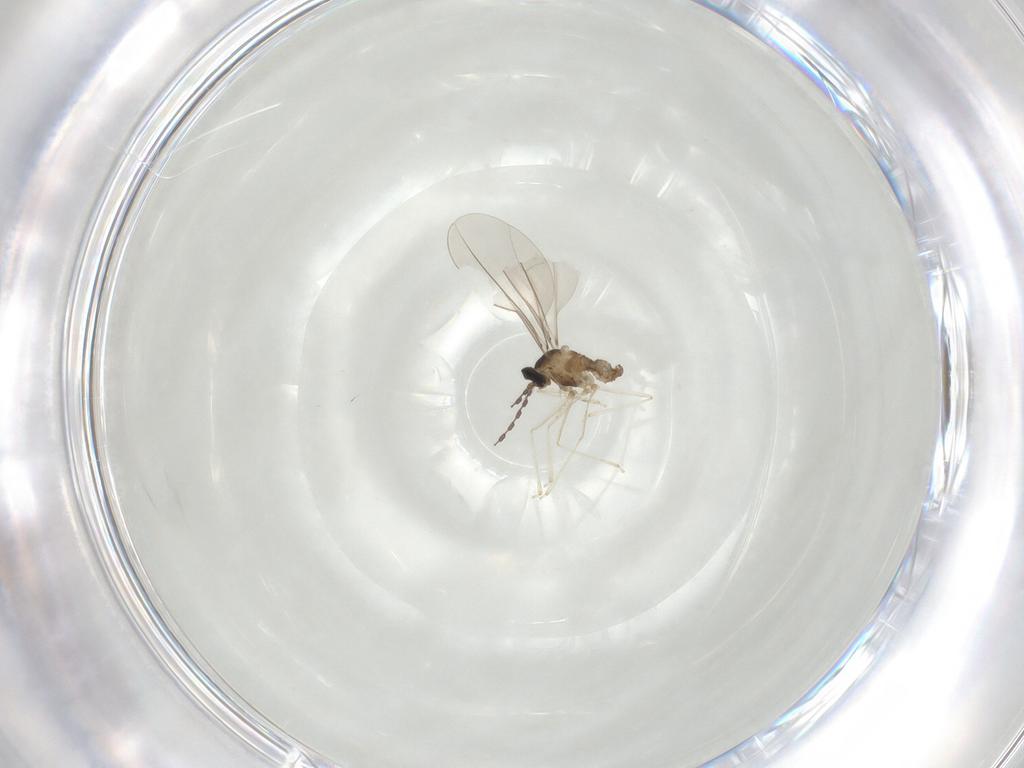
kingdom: Animalia
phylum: Arthropoda
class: Insecta
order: Diptera
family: Cecidomyiidae
